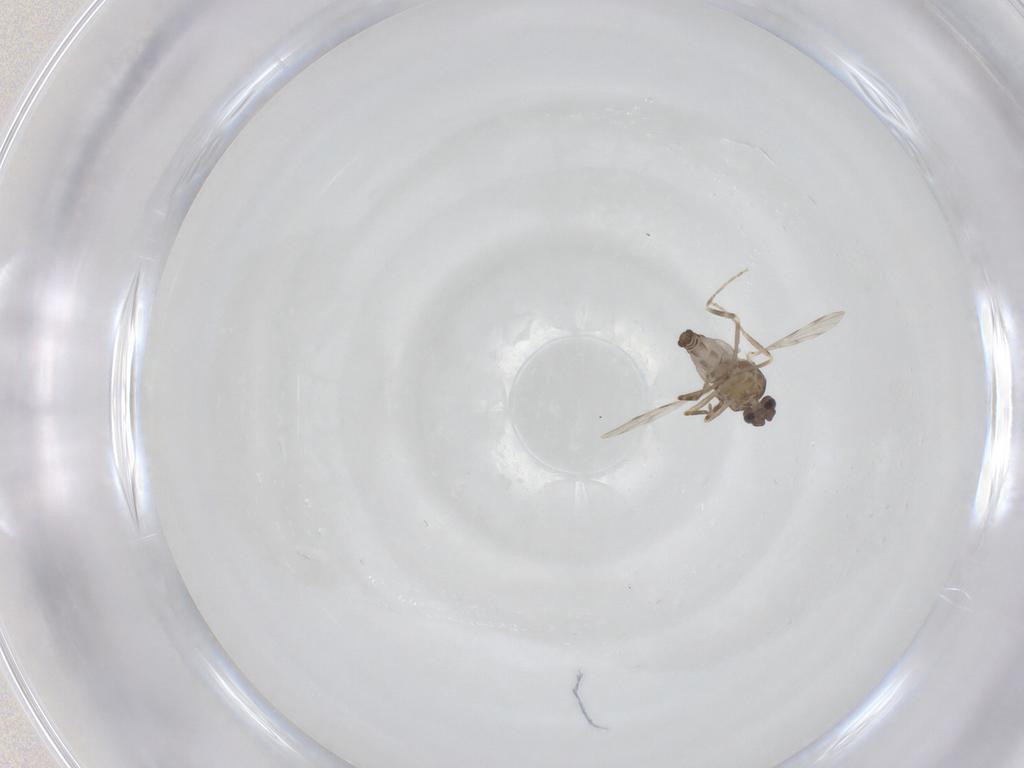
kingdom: Animalia
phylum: Arthropoda
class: Insecta
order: Diptera
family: Ceratopogonidae
